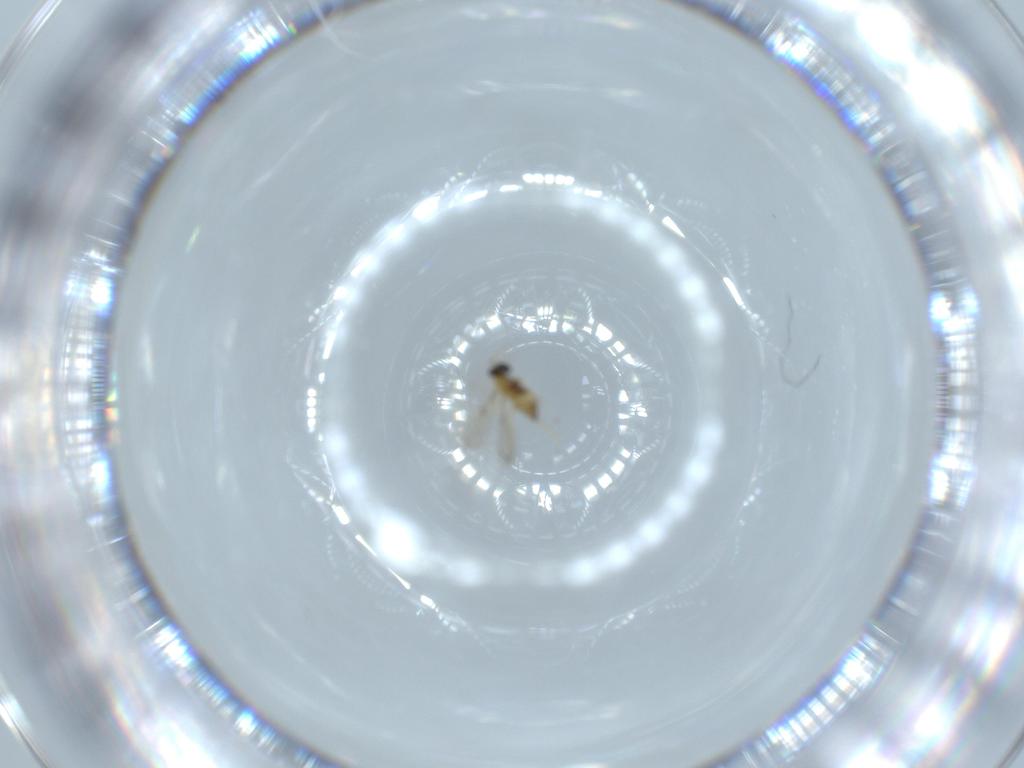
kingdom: Animalia
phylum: Arthropoda
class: Insecta
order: Hymenoptera
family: Trichogrammatidae
